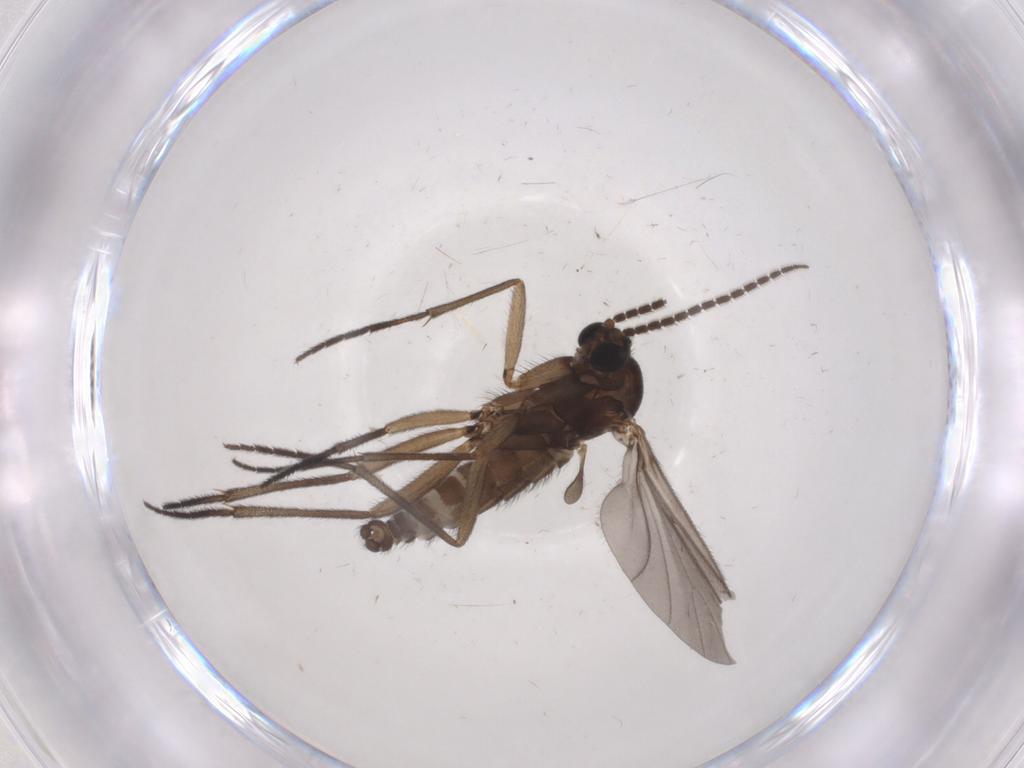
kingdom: Animalia
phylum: Arthropoda
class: Insecta
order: Diptera
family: Sciaridae
